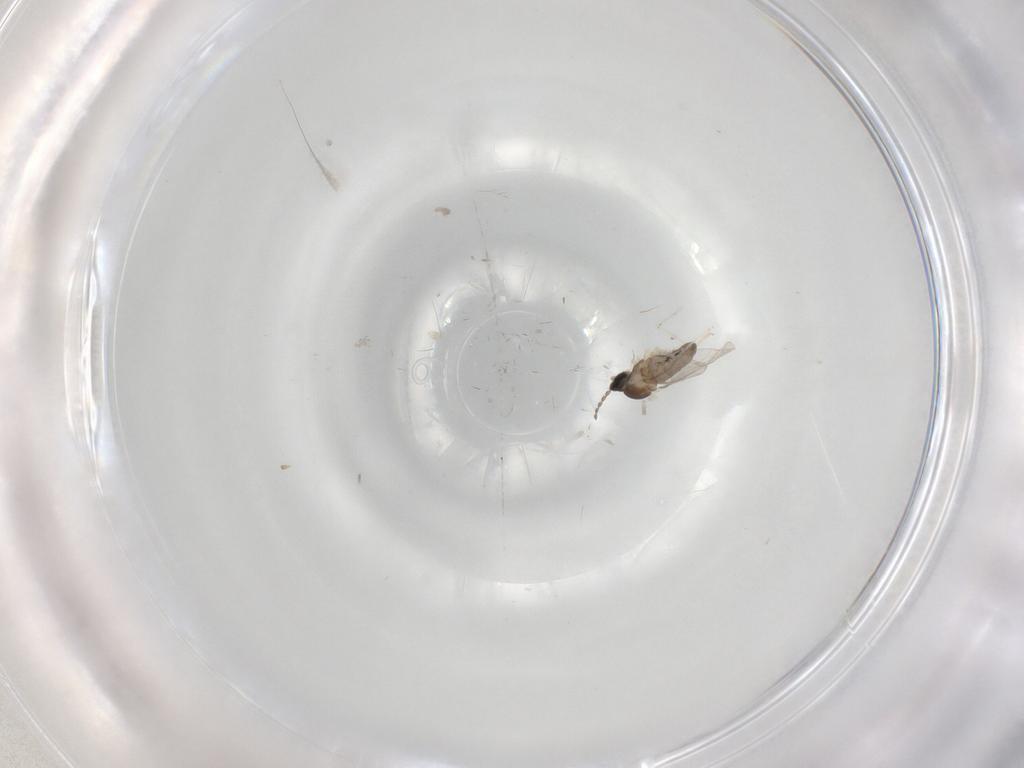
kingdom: Animalia
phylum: Arthropoda
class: Insecta
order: Diptera
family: Cecidomyiidae
